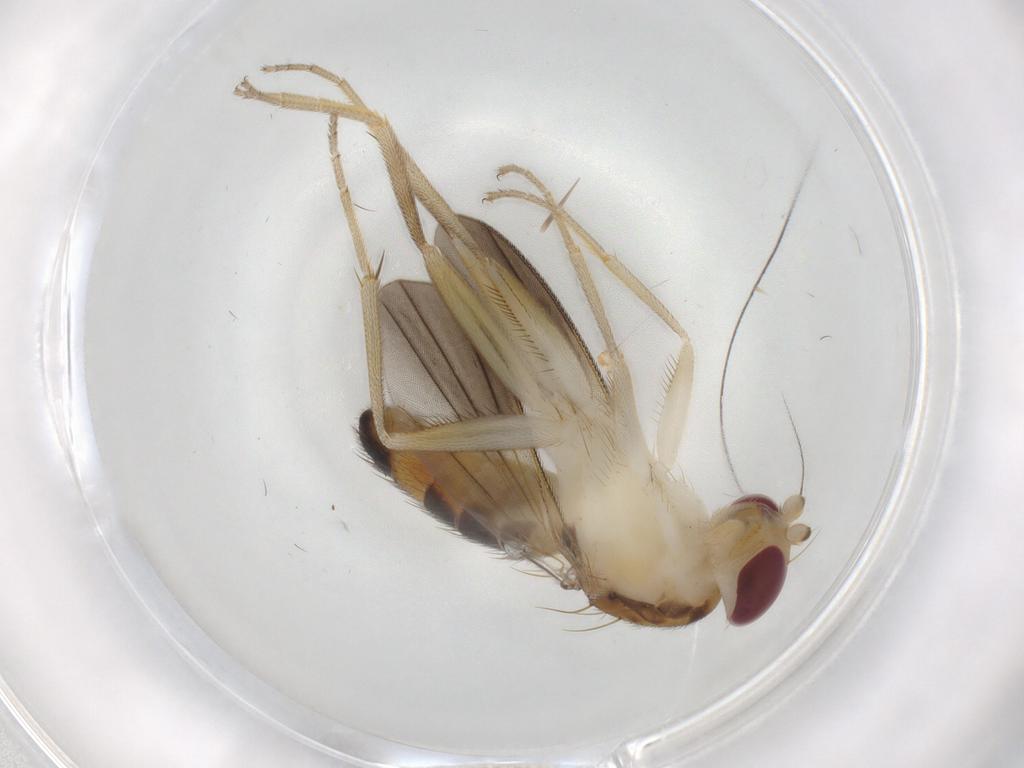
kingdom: Animalia
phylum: Arthropoda
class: Insecta
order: Diptera
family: Clusiidae
